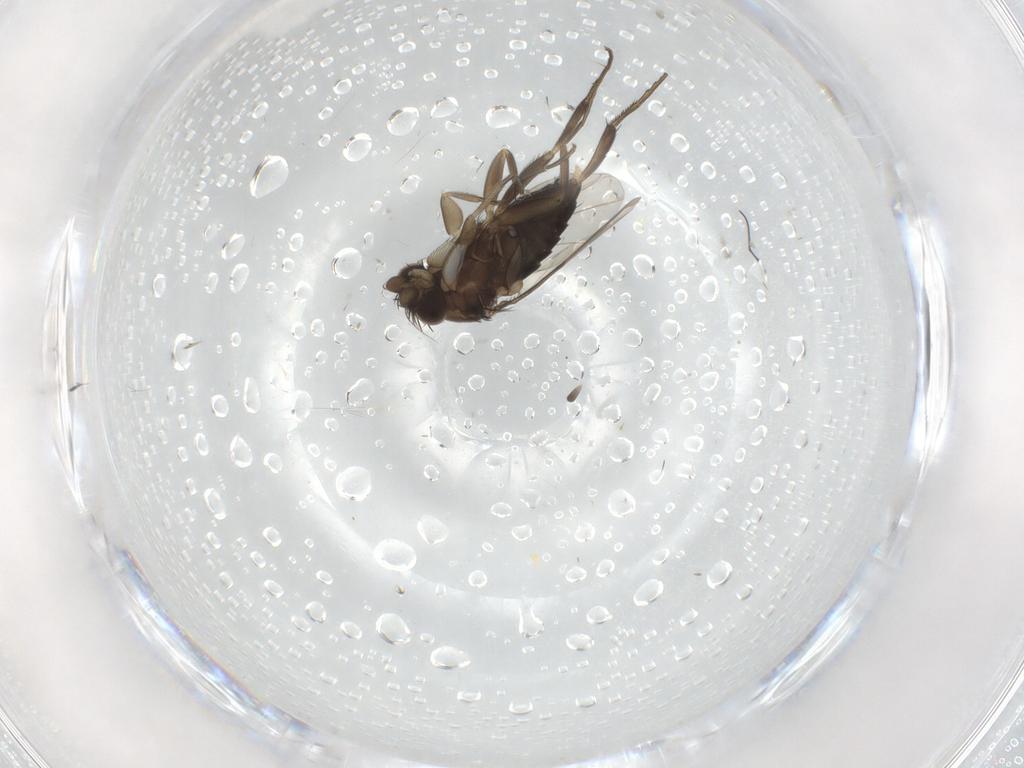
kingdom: Animalia
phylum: Arthropoda
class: Insecta
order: Diptera
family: Phoridae
